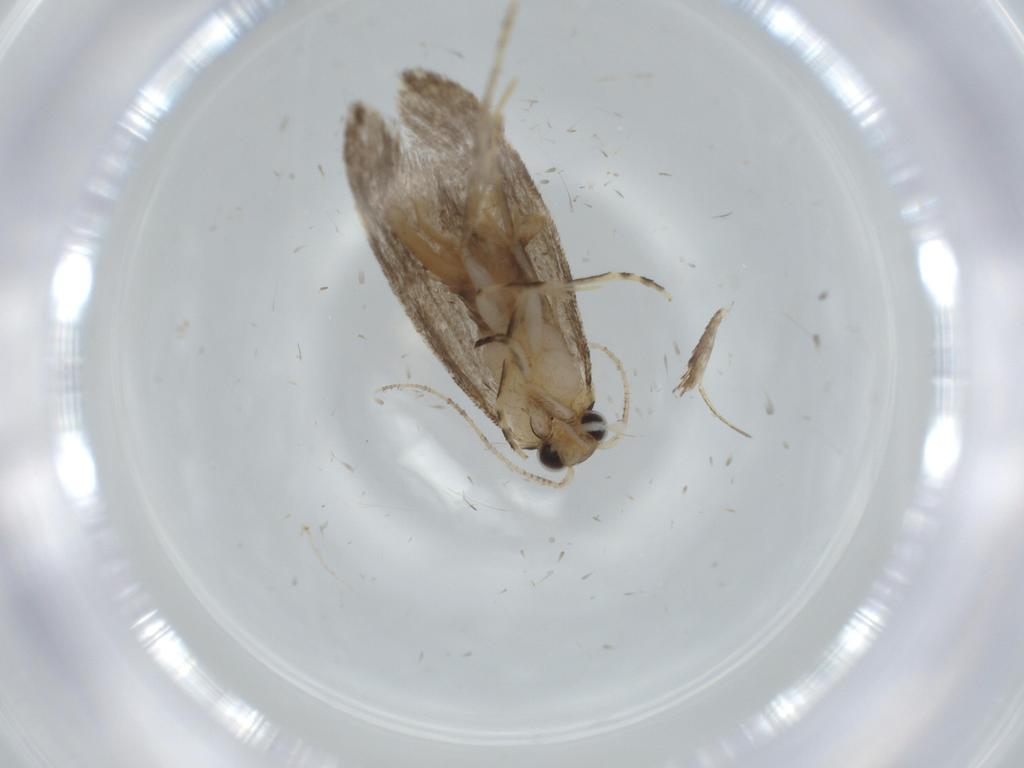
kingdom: Animalia
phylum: Arthropoda
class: Insecta
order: Lepidoptera
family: Tineidae
